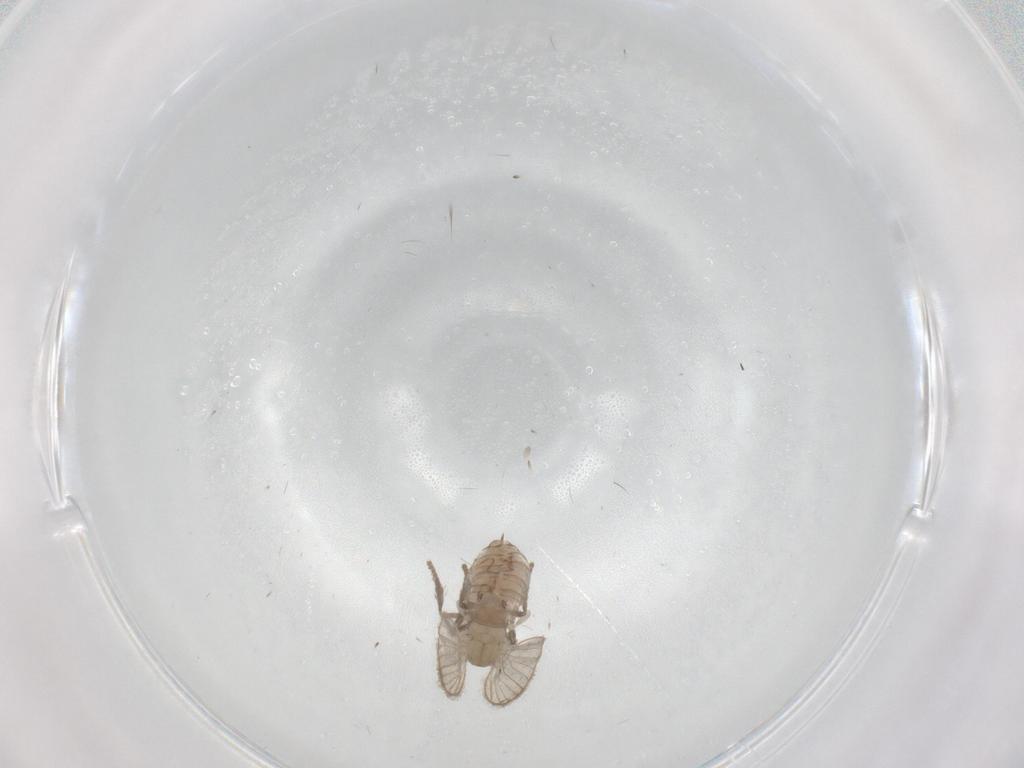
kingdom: Animalia
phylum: Arthropoda
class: Insecta
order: Diptera
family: Psychodidae
